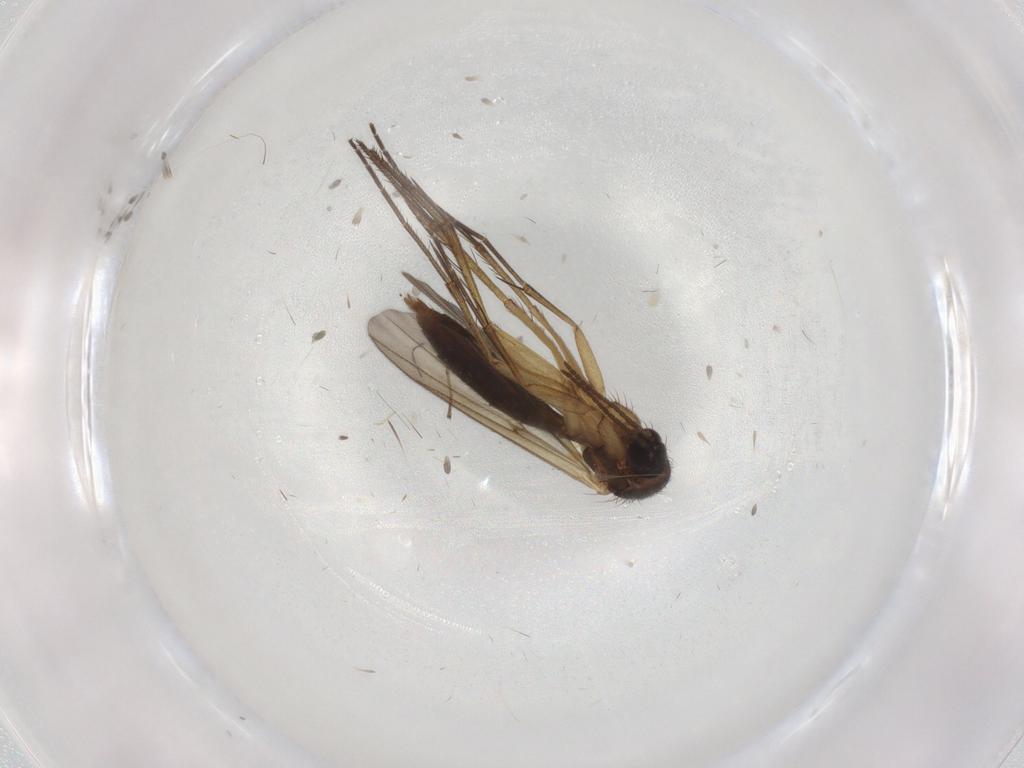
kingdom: Animalia
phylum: Arthropoda
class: Insecta
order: Diptera
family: Mycetophilidae
